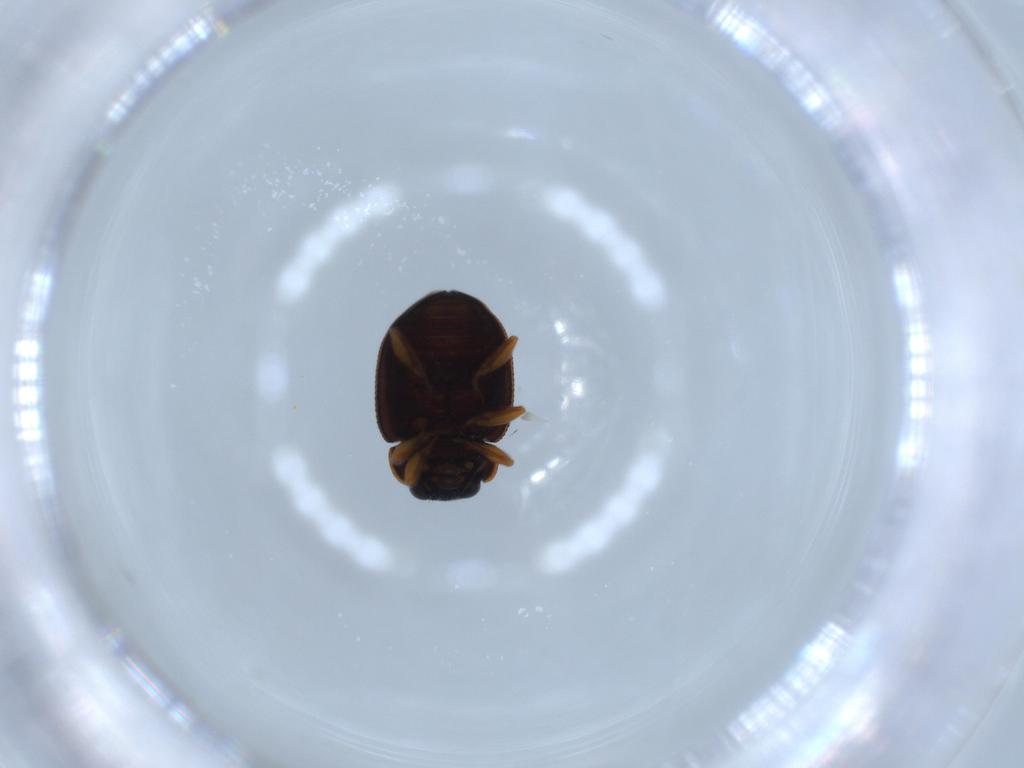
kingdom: Animalia
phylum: Arthropoda
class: Insecta
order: Coleoptera
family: Coccinellidae
